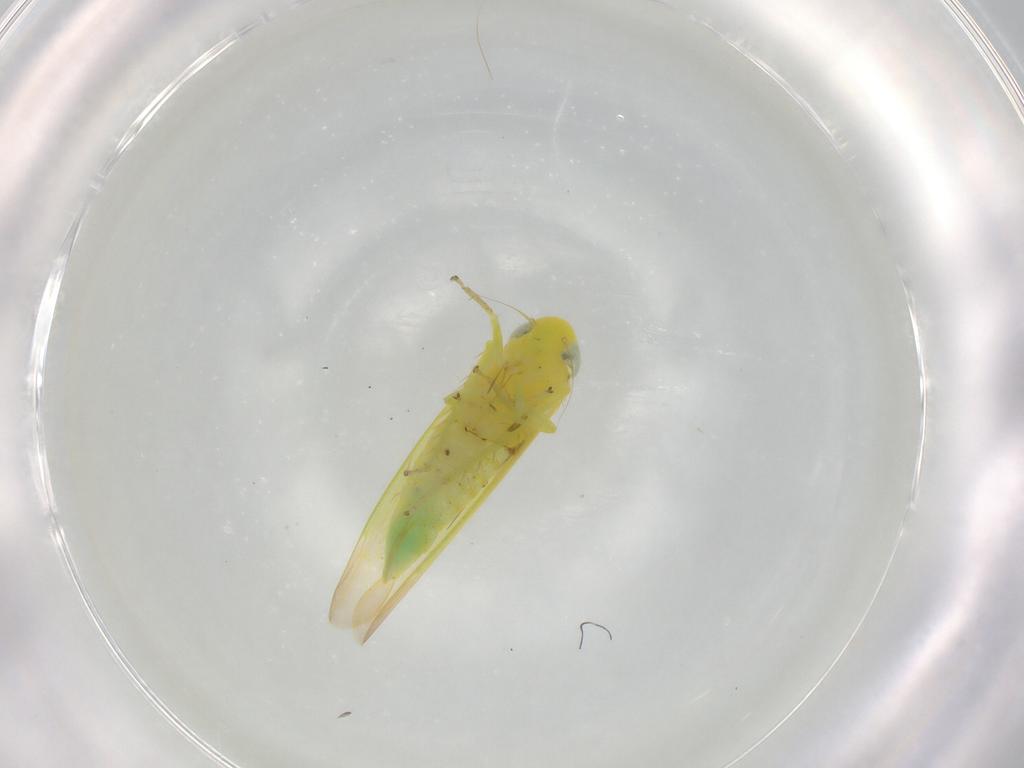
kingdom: Animalia
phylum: Arthropoda
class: Insecta
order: Hemiptera
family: Cicadellidae
